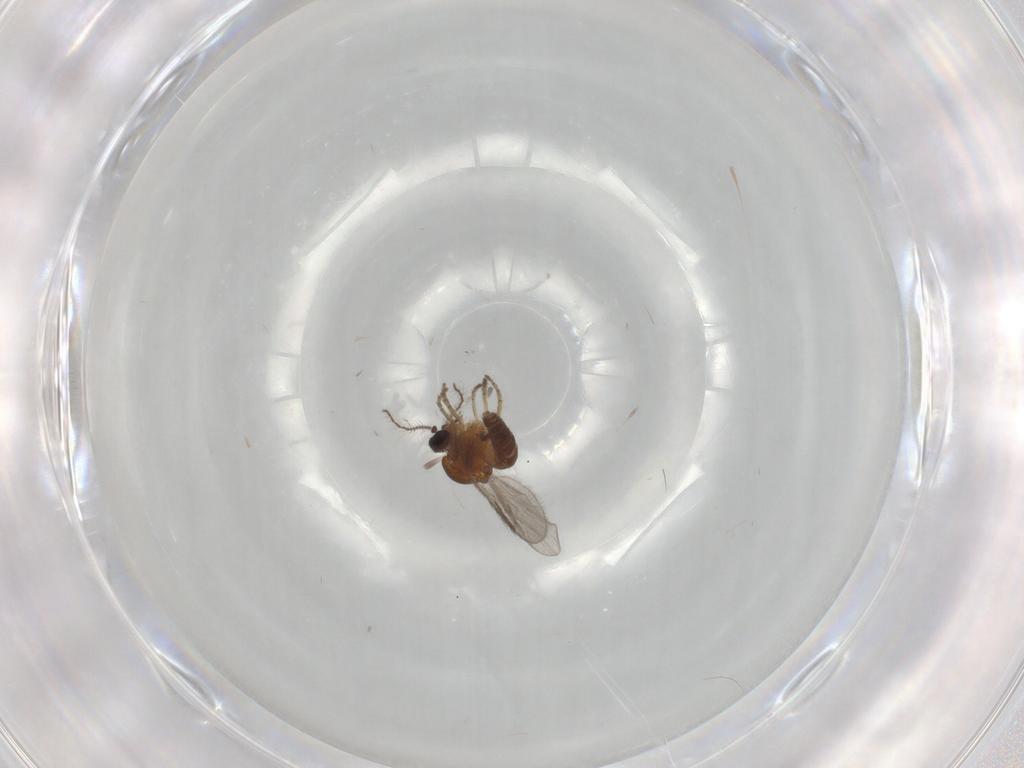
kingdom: Animalia
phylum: Arthropoda
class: Insecta
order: Diptera
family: Ceratopogonidae
